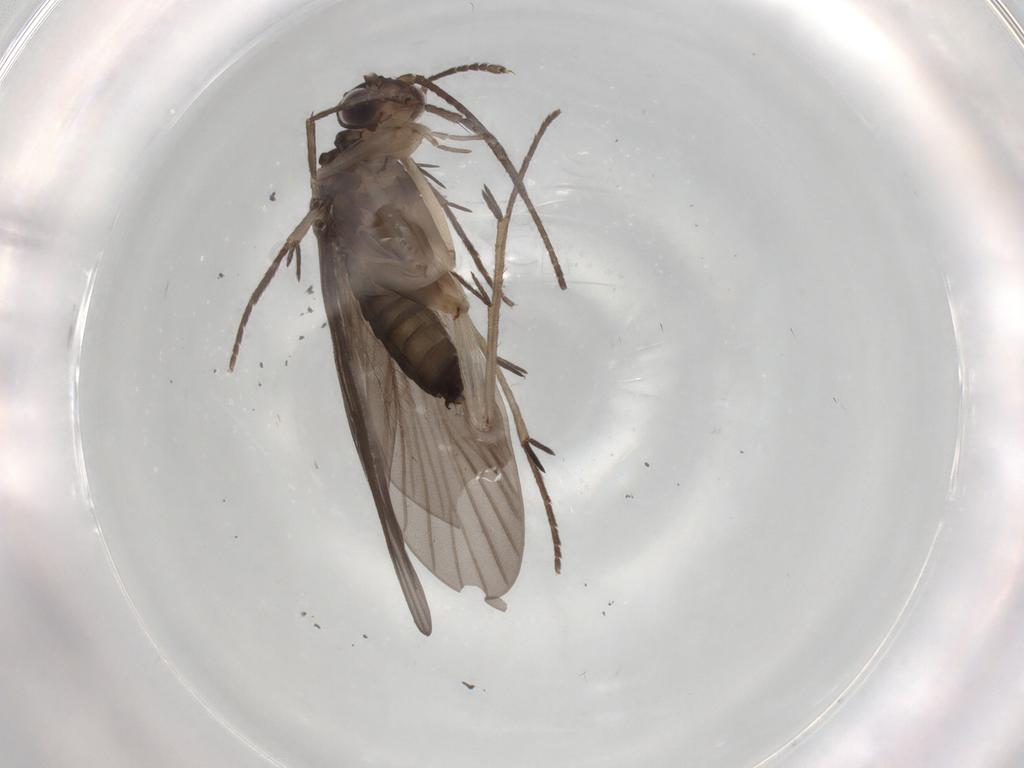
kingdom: Animalia
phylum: Arthropoda
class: Insecta
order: Trichoptera
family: Philopotamidae
